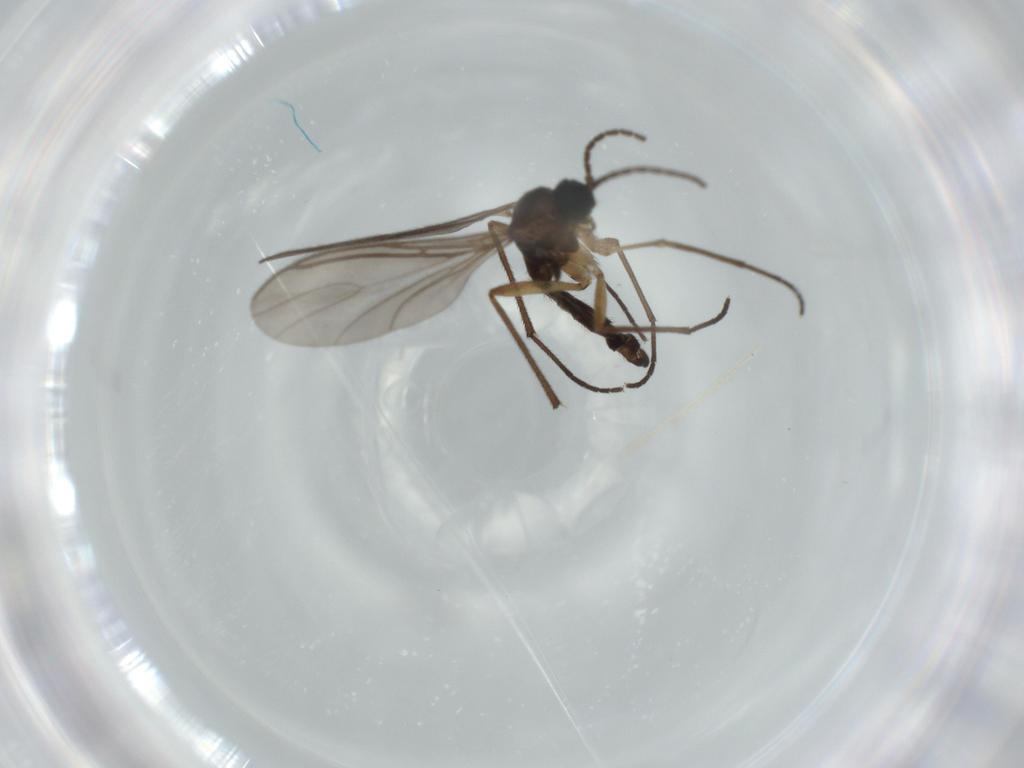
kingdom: Animalia
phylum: Arthropoda
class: Insecta
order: Diptera
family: Sciaridae
